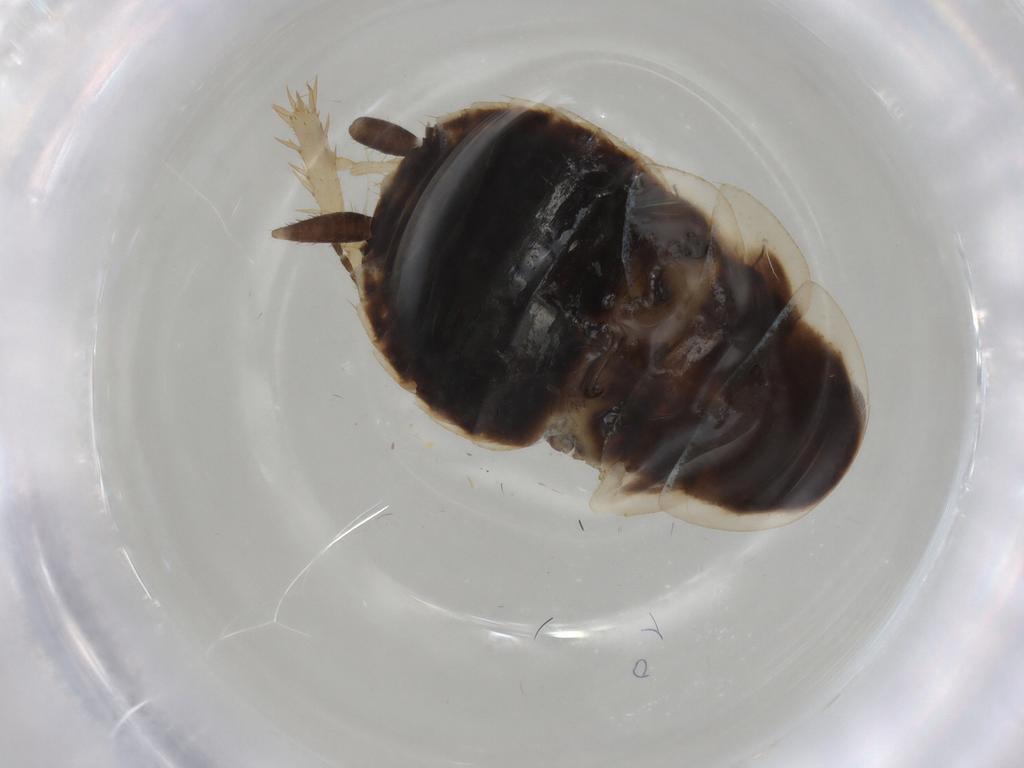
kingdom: Animalia
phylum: Arthropoda
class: Insecta
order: Blattodea
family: Ectobiidae
